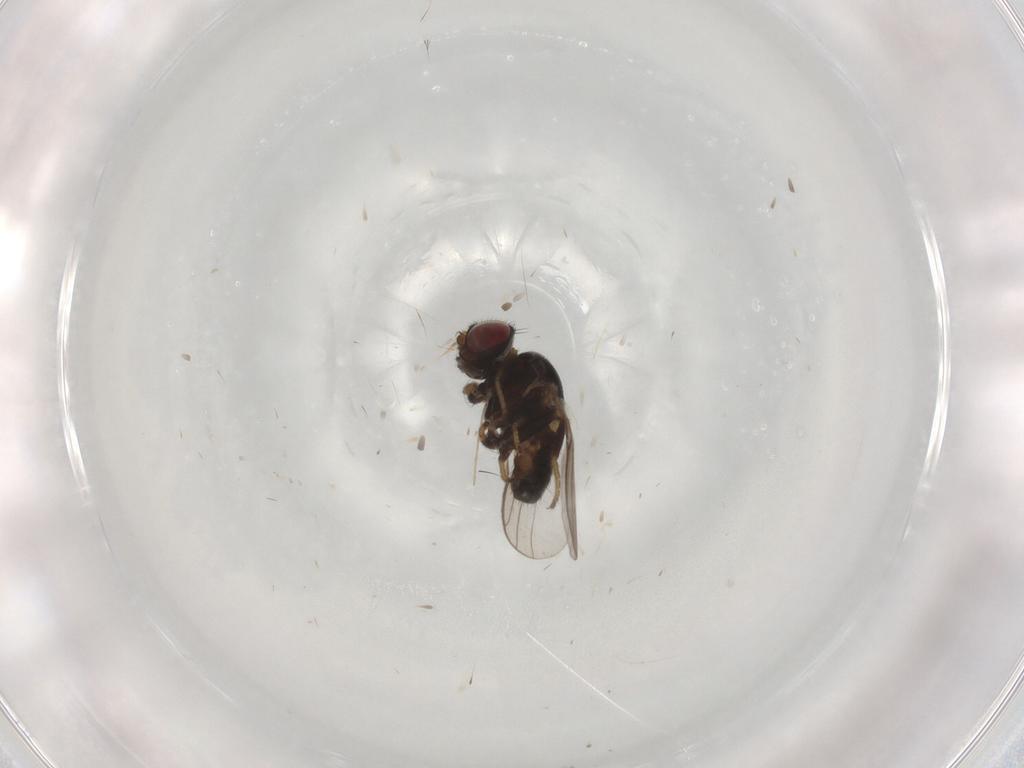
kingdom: Animalia
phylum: Arthropoda
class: Insecta
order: Diptera
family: Chloropidae
